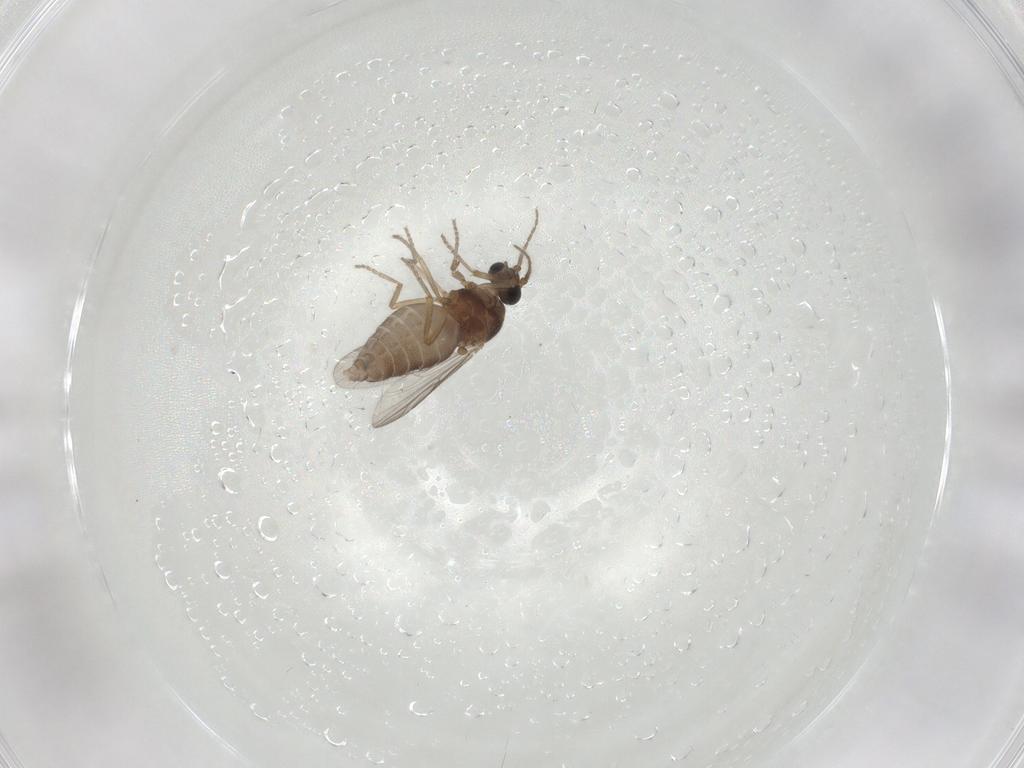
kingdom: Animalia
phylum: Arthropoda
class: Insecta
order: Diptera
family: Ceratopogonidae
